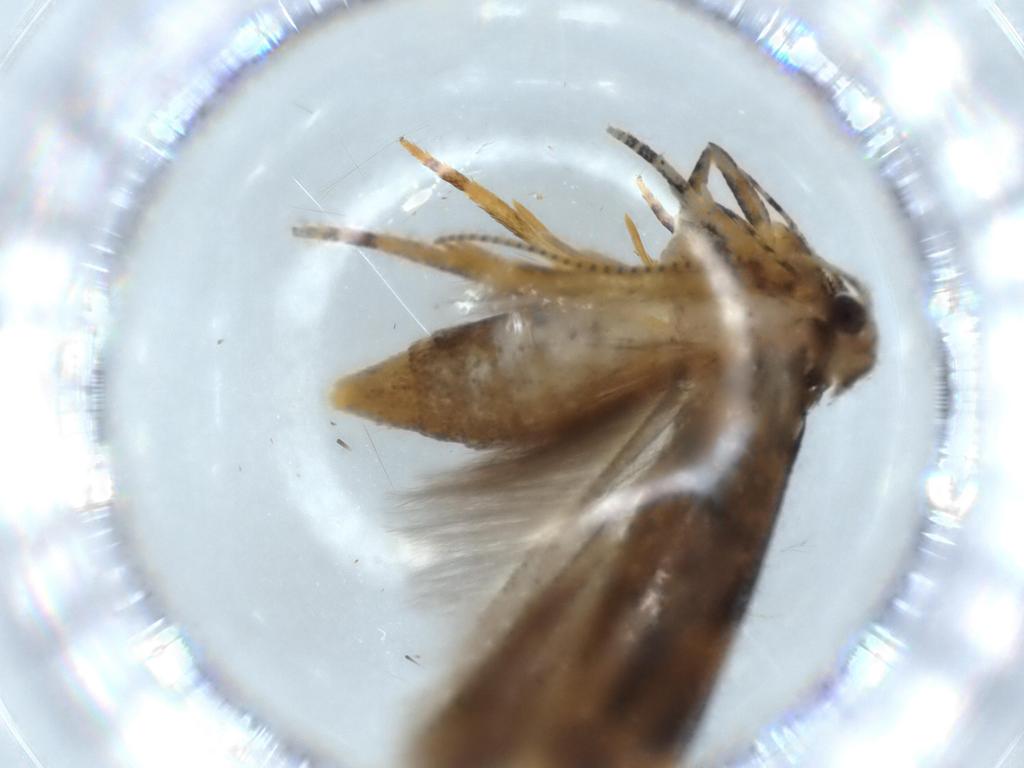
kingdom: Animalia
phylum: Arthropoda
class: Insecta
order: Lepidoptera
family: Autostichidae
